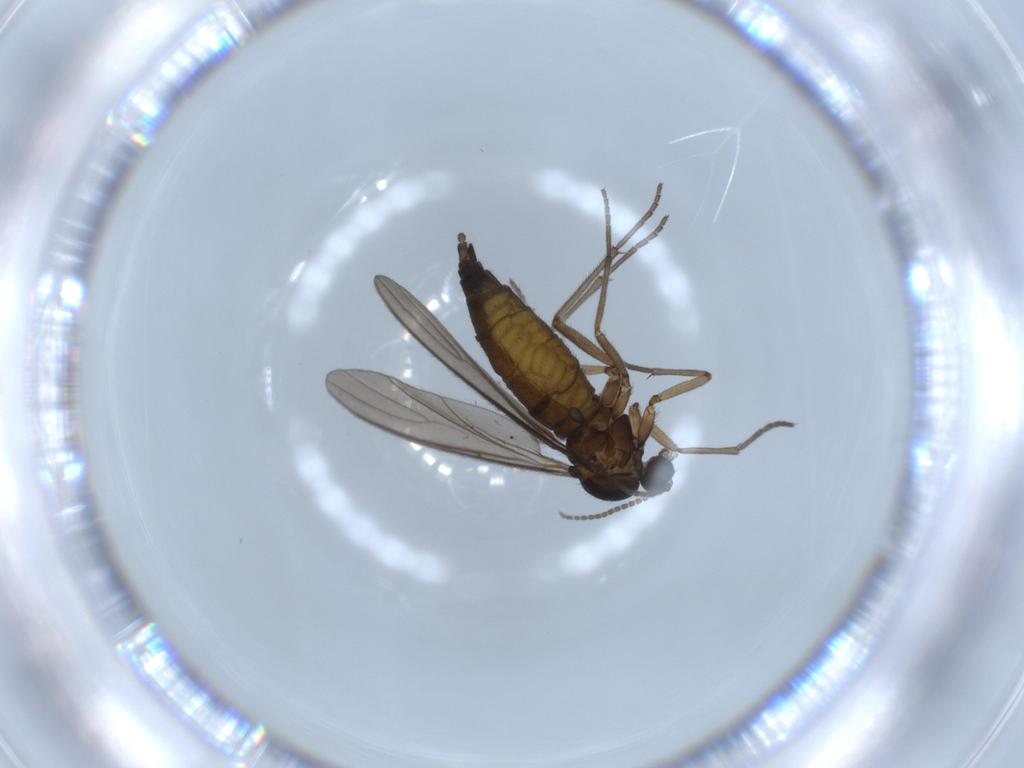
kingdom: Animalia
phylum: Arthropoda
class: Insecta
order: Diptera
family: Sciaridae
